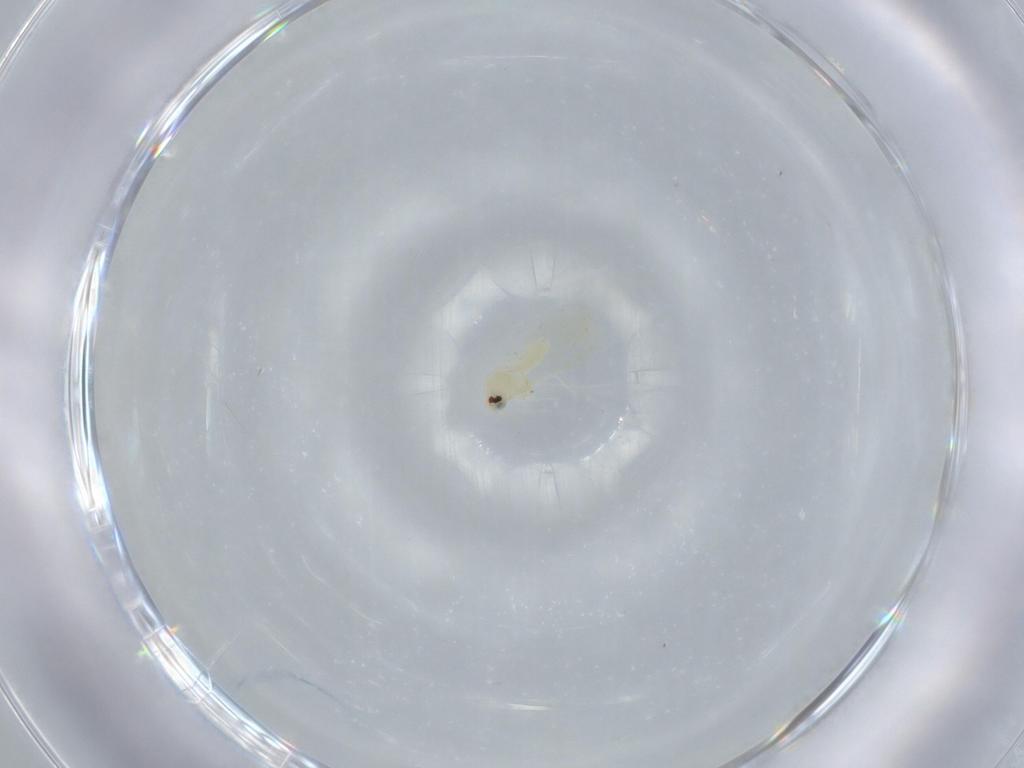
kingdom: Animalia
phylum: Arthropoda
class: Insecta
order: Hemiptera
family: Aleyrodidae
